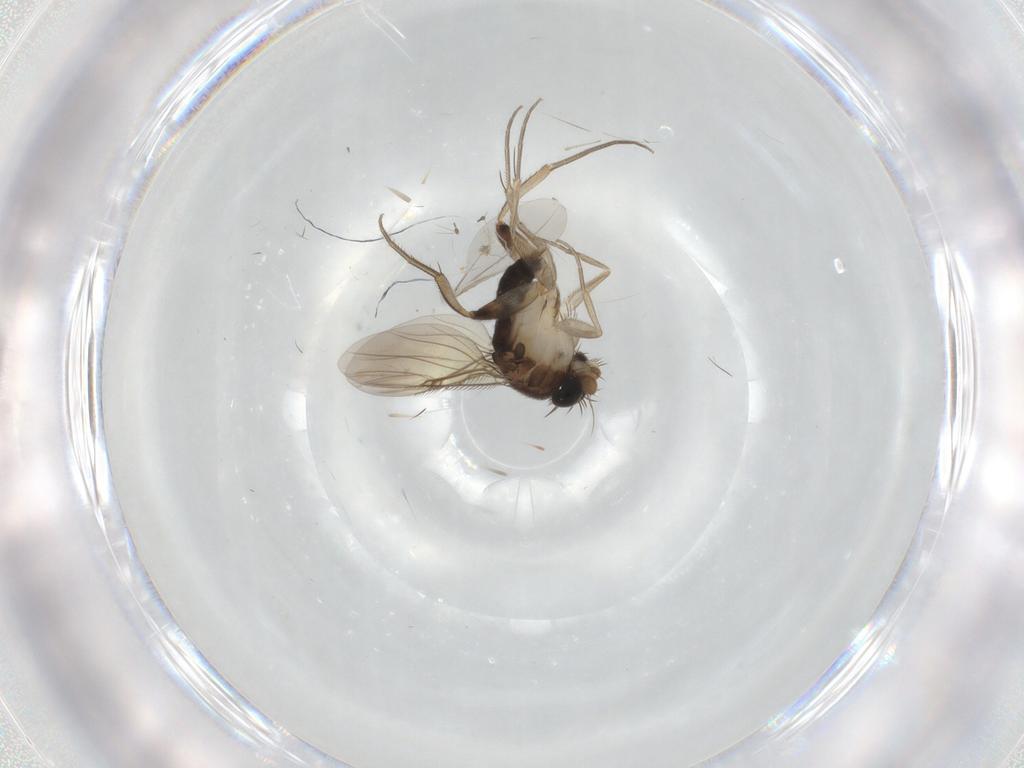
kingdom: Animalia
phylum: Arthropoda
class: Insecta
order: Diptera
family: Phoridae
